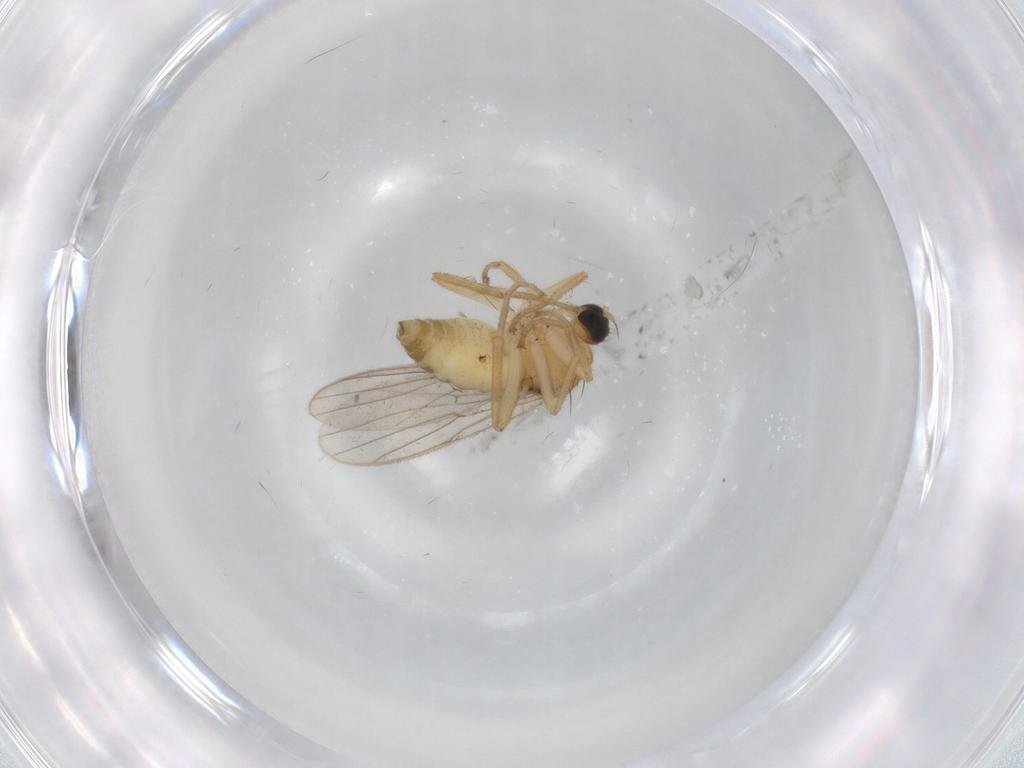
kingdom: Animalia
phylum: Arthropoda
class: Insecta
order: Diptera
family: Hybotidae
